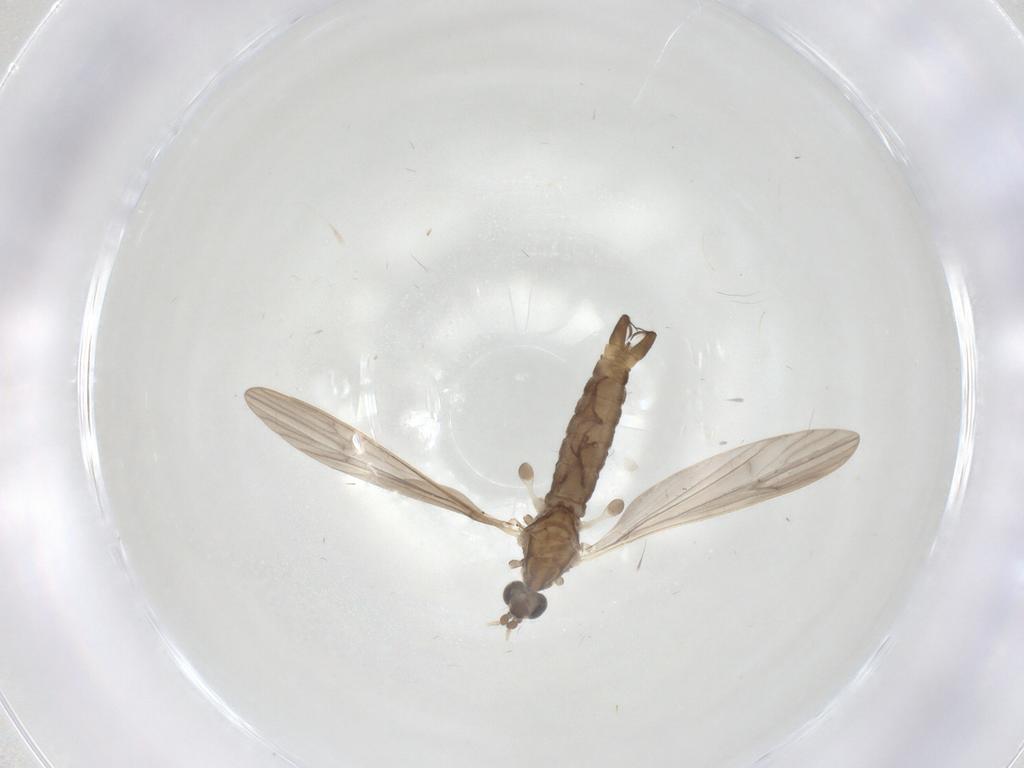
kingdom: Animalia
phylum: Arthropoda
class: Insecta
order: Diptera
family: Limoniidae
